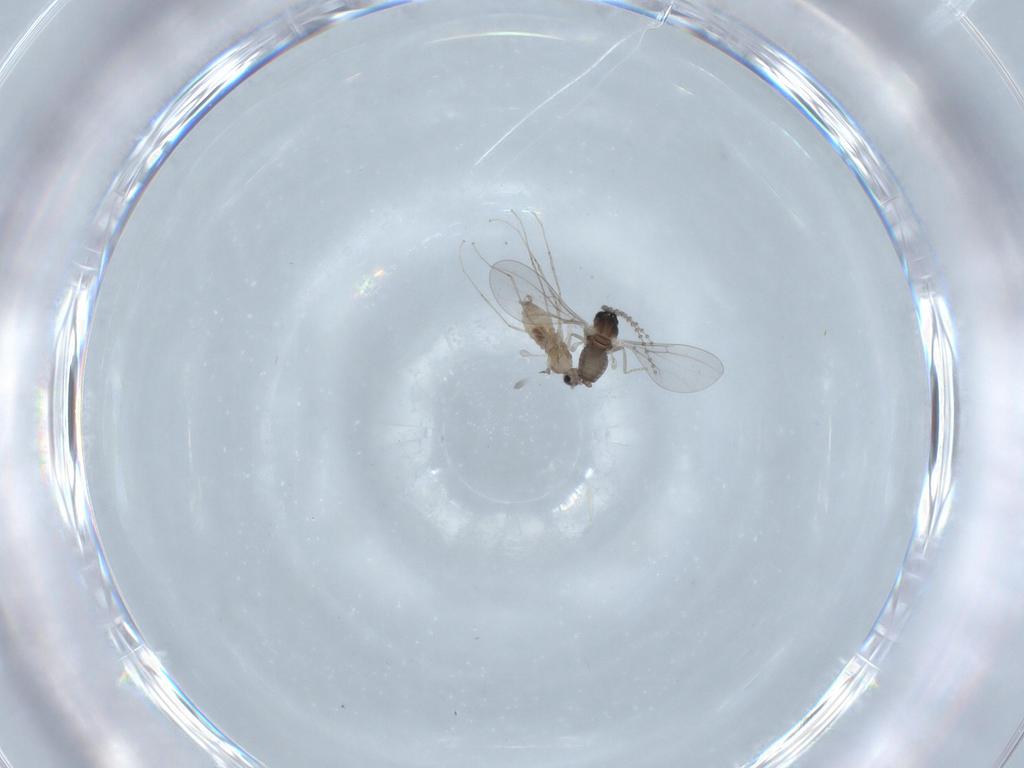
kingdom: Animalia
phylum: Arthropoda
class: Insecta
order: Diptera
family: Cecidomyiidae
